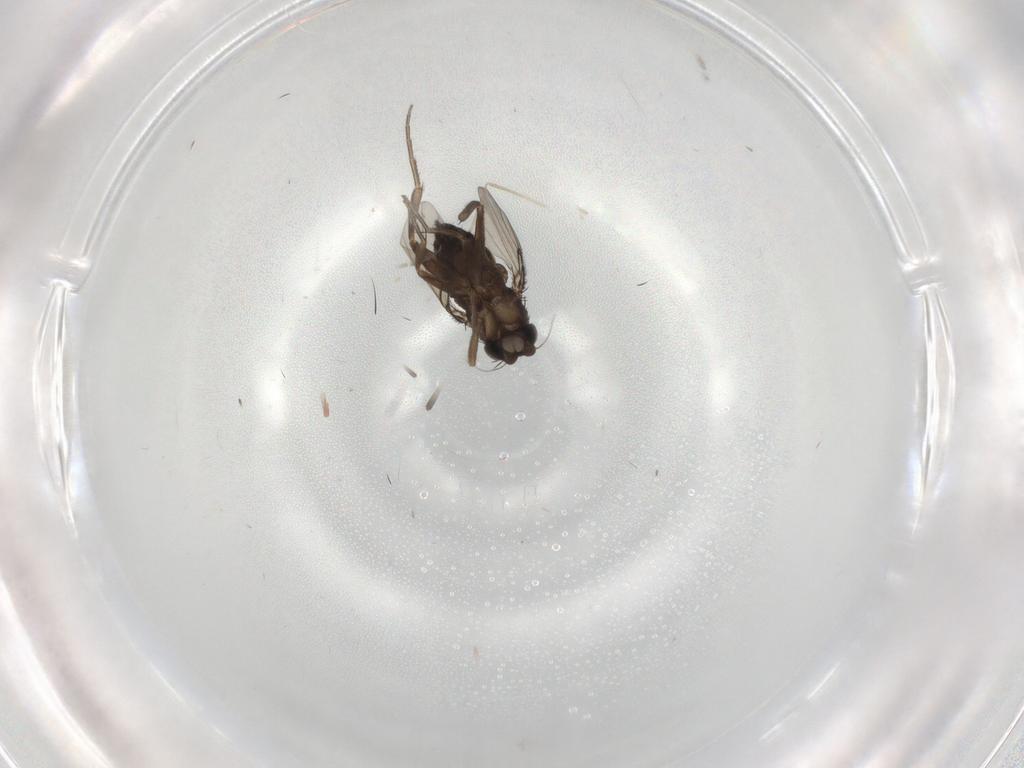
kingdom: Animalia
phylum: Arthropoda
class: Insecta
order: Diptera
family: Phoridae
